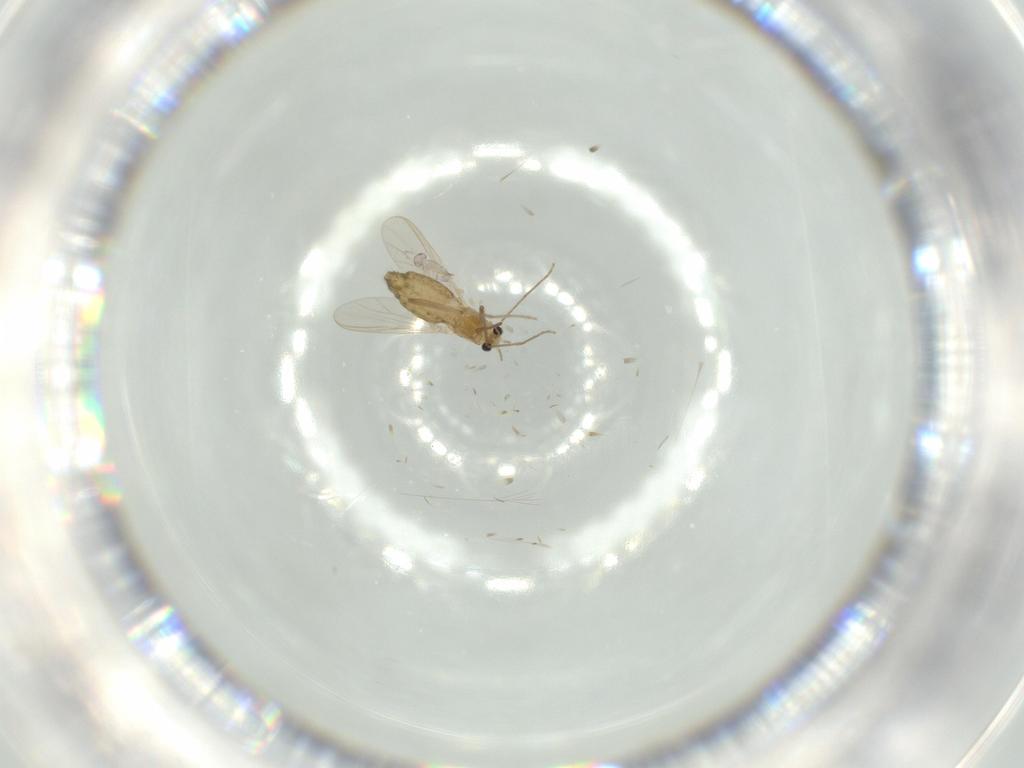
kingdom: Animalia
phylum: Arthropoda
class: Insecta
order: Diptera
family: Chironomidae
